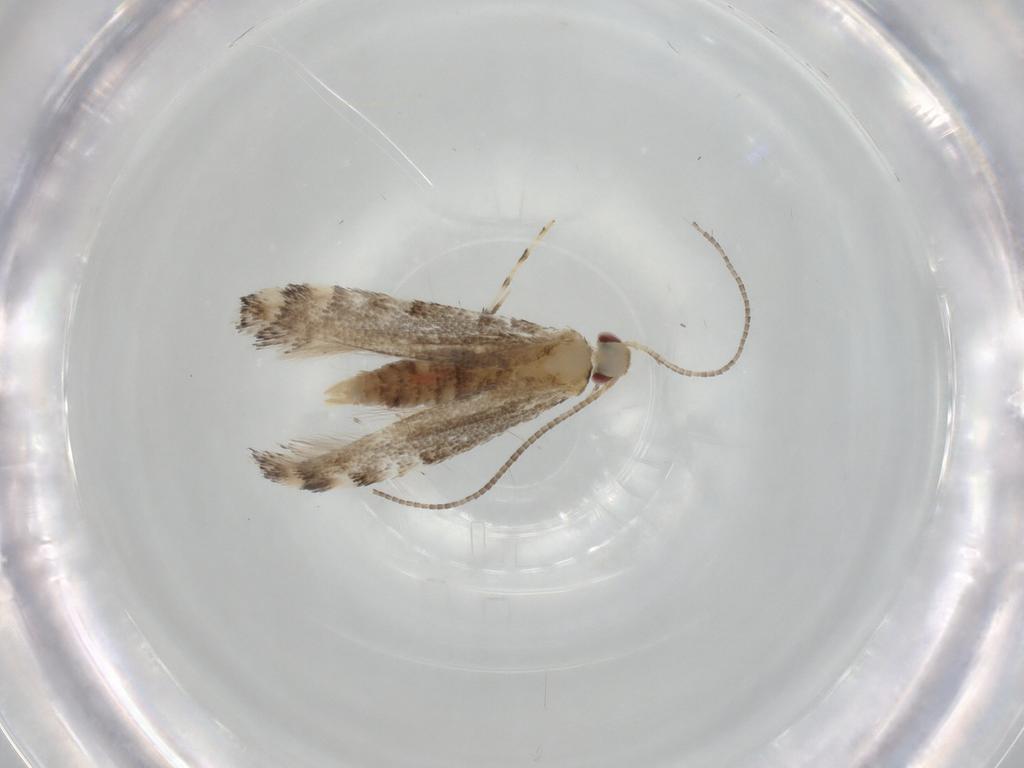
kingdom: Animalia
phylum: Arthropoda
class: Insecta
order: Lepidoptera
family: Gracillariidae
